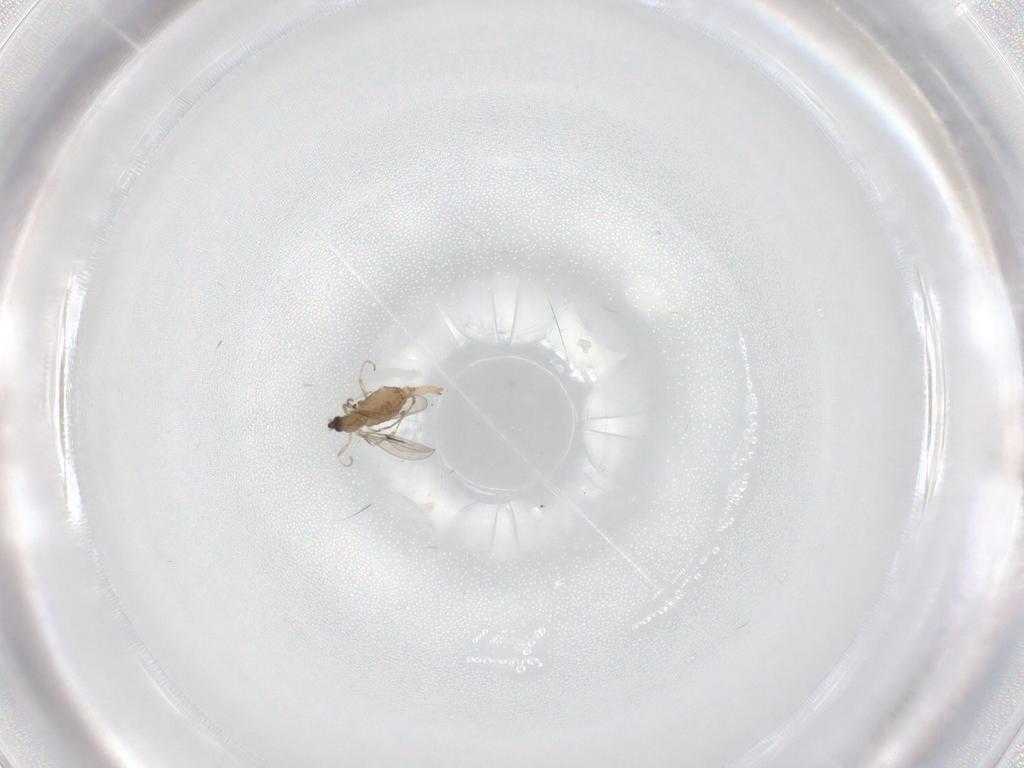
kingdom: Animalia
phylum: Arthropoda
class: Insecta
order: Diptera
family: Cecidomyiidae
